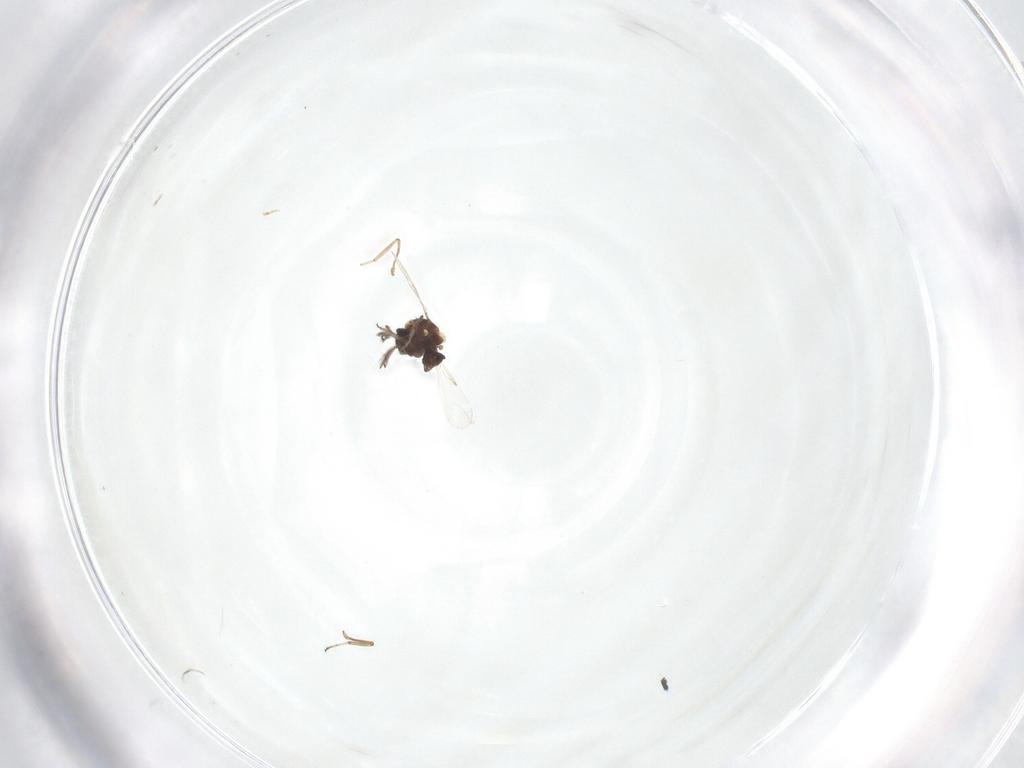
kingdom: Animalia
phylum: Arthropoda
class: Insecta
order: Diptera
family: Ceratopogonidae
